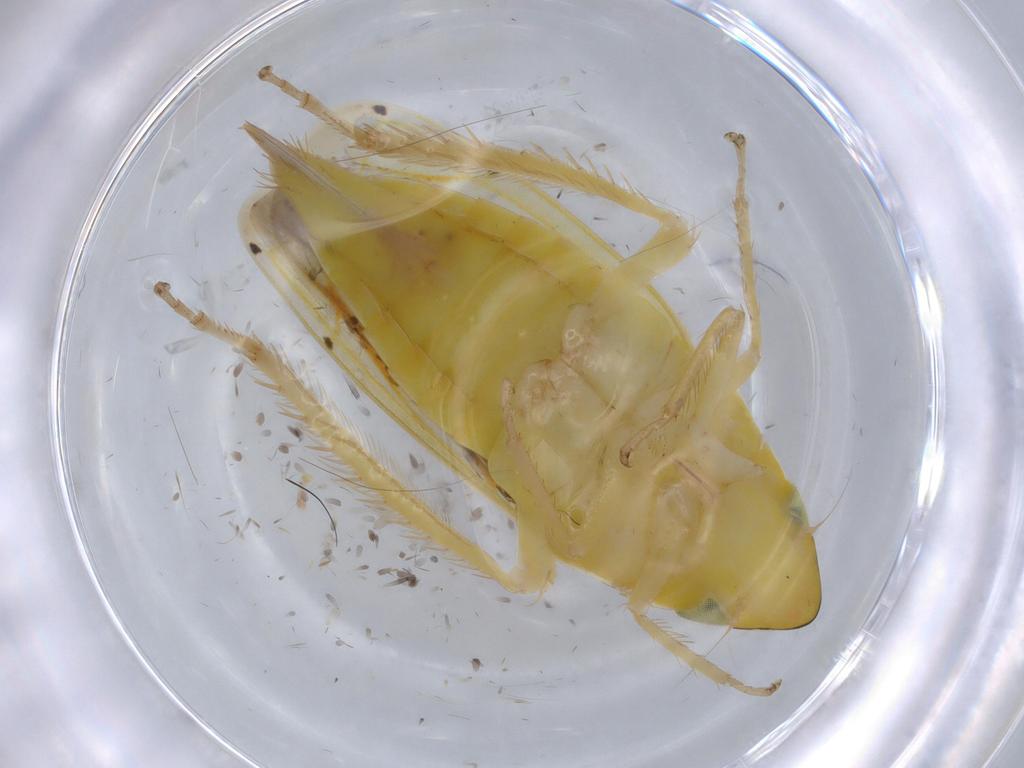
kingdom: Animalia
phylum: Arthropoda
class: Insecta
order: Hemiptera
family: Cicadellidae
